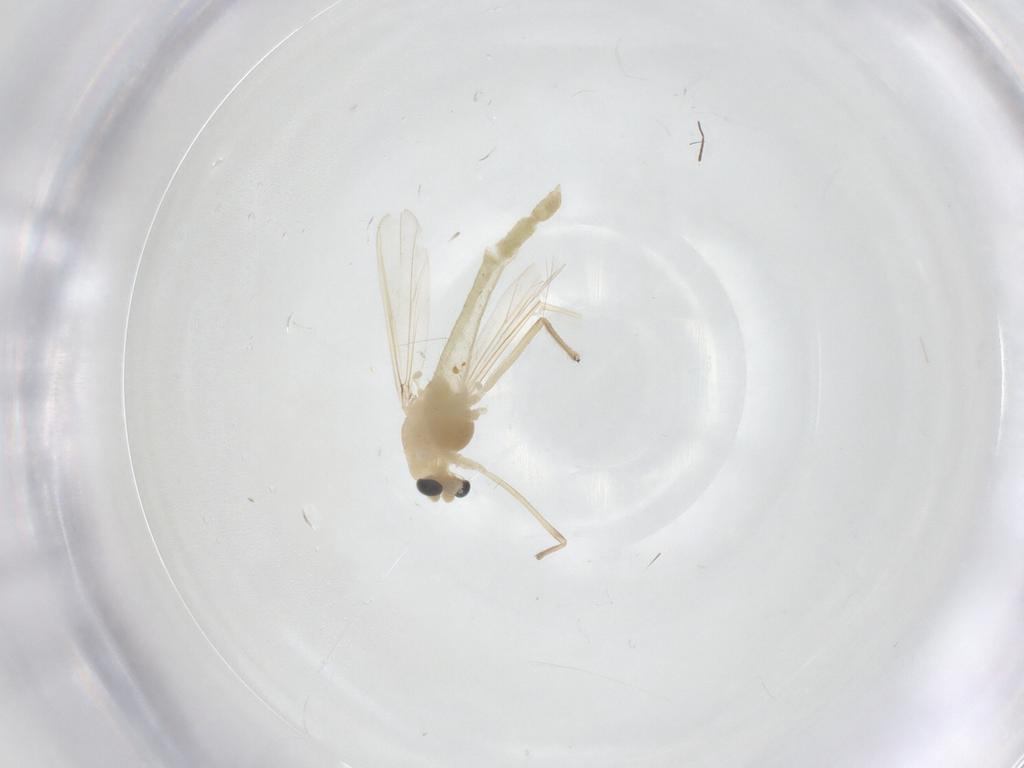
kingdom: Animalia
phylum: Arthropoda
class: Insecta
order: Diptera
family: Chironomidae
